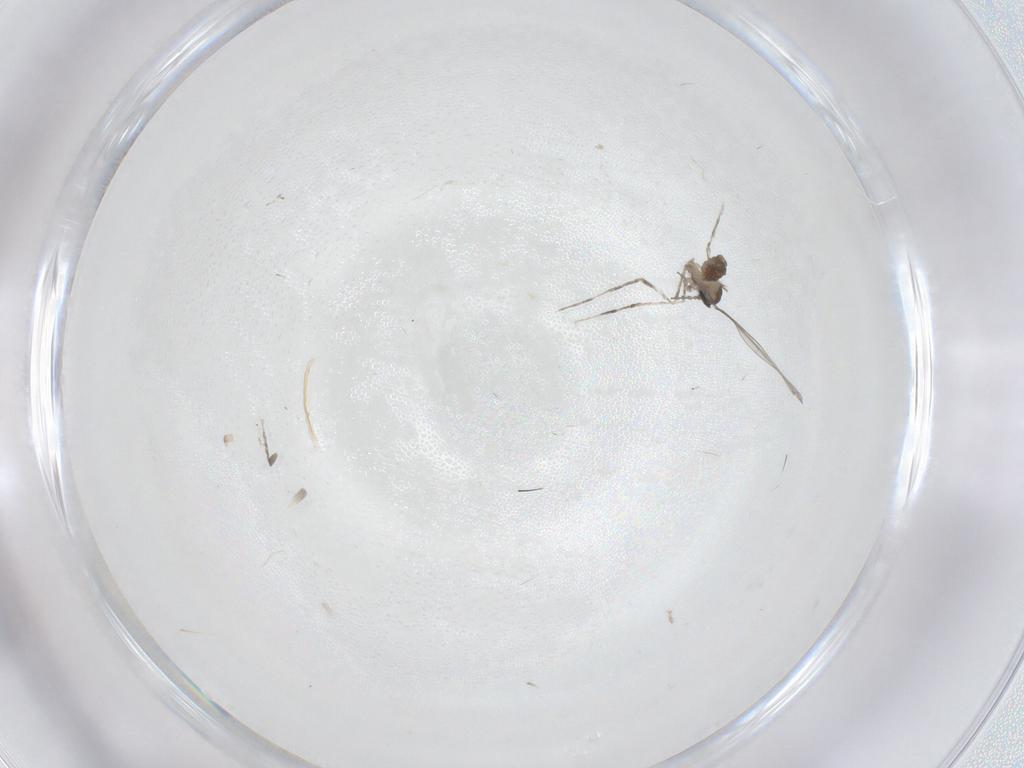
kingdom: Animalia
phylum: Arthropoda
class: Insecta
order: Diptera
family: Cecidomyiidae
